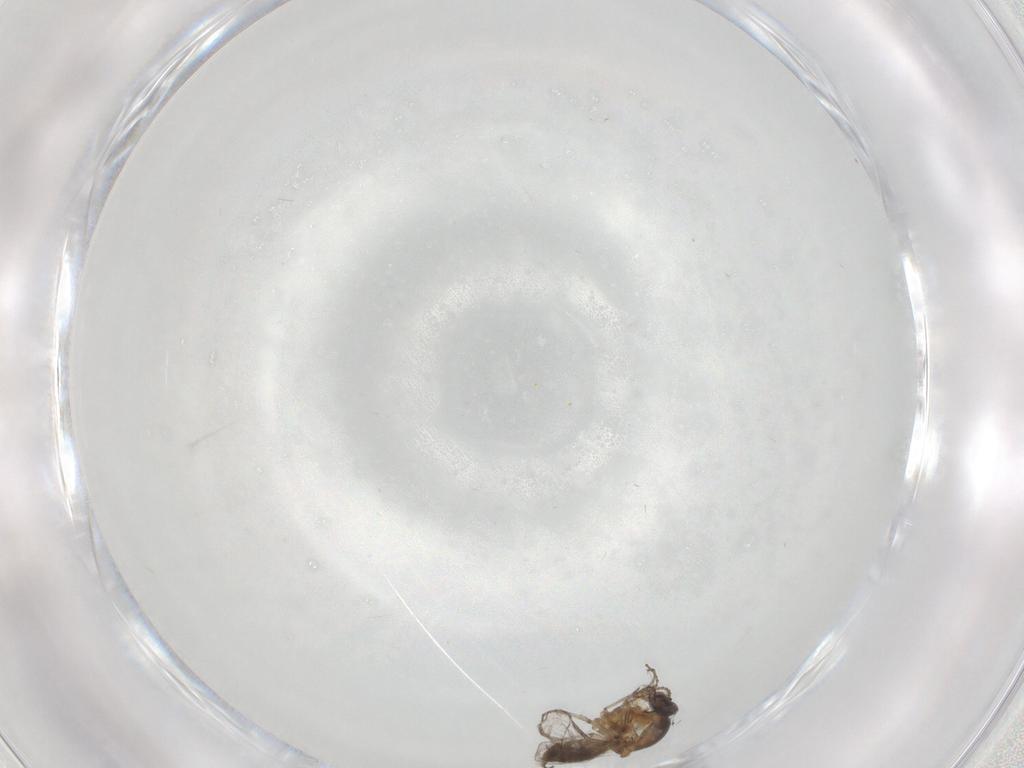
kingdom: Animalia
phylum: Arthropoda
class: Insecta
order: Diptera
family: Ceratopogonidae
